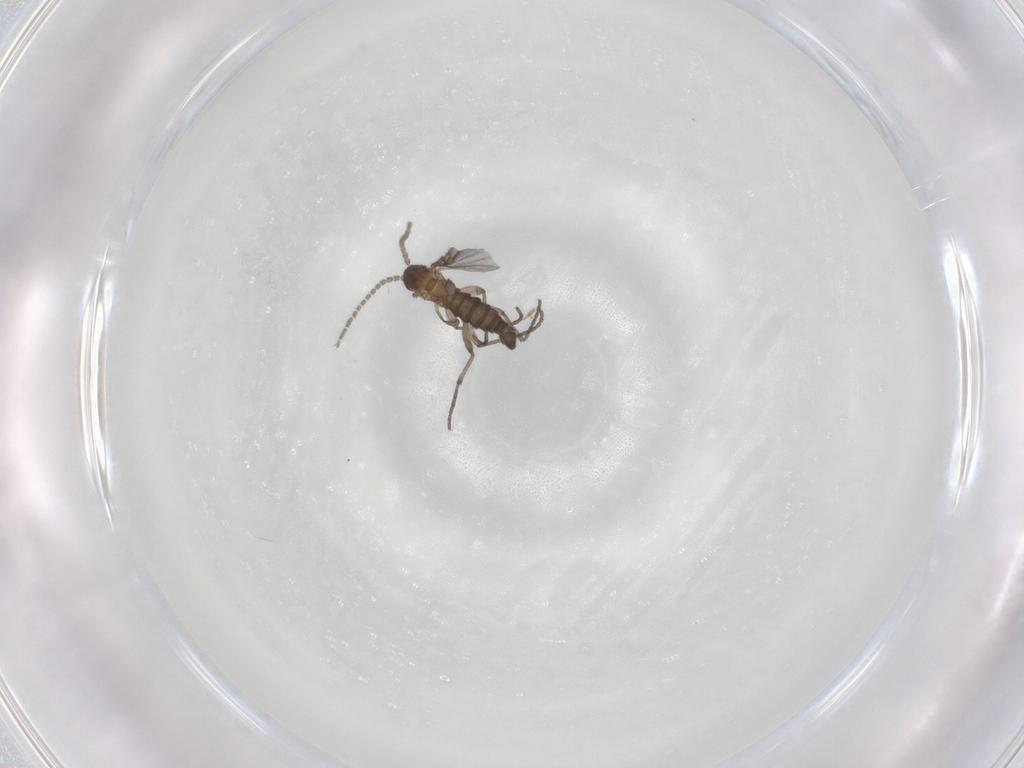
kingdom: Animalia
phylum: Arthropoda
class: Insecta
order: Diptera
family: Sciaridae
